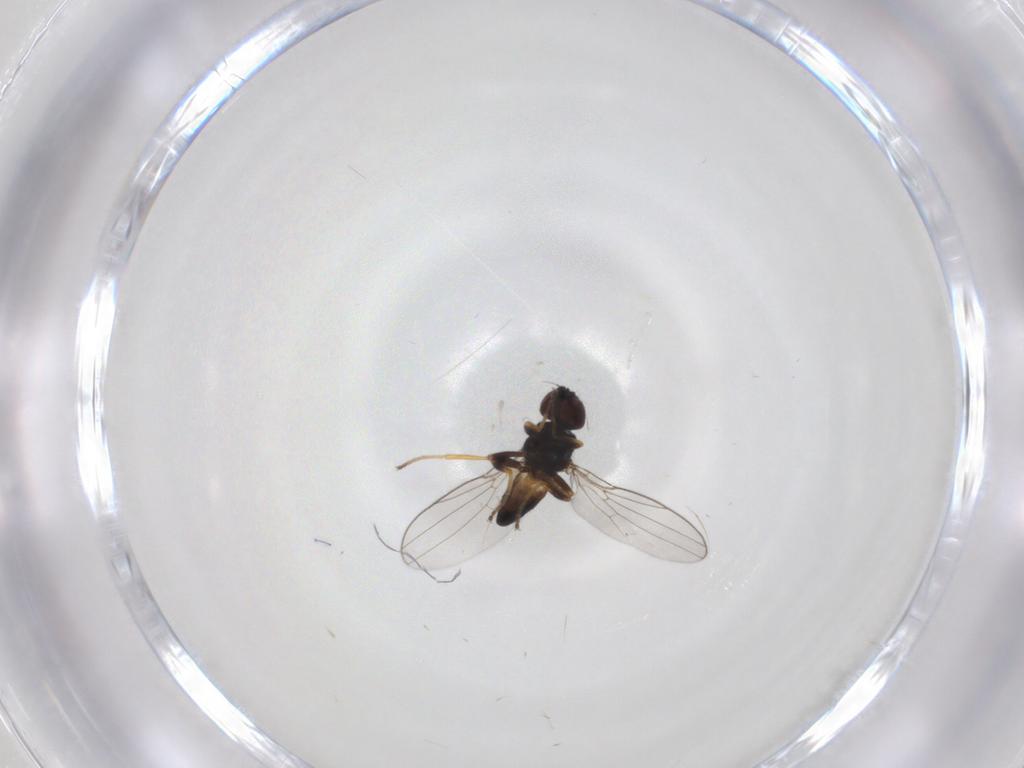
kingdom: Animalia
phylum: Arthropoda
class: Insecta
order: Diptera
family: Chloropidae
